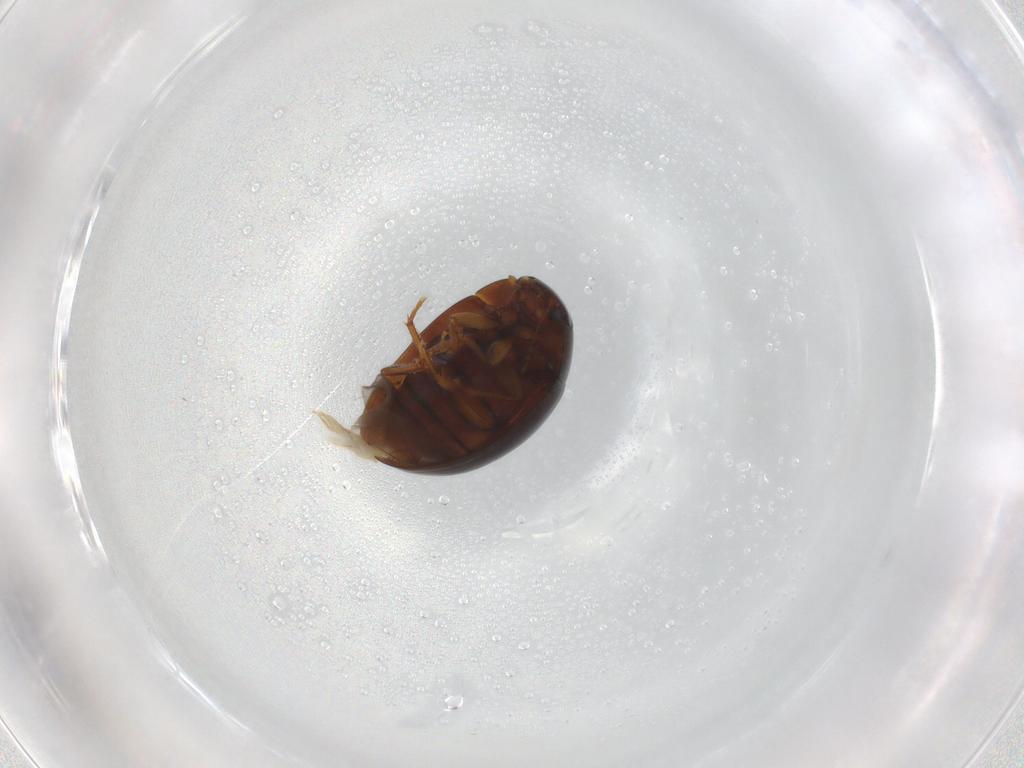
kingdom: Animalia
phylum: Arthropoda
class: Insecta
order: Coleoptera
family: Phalacridae
